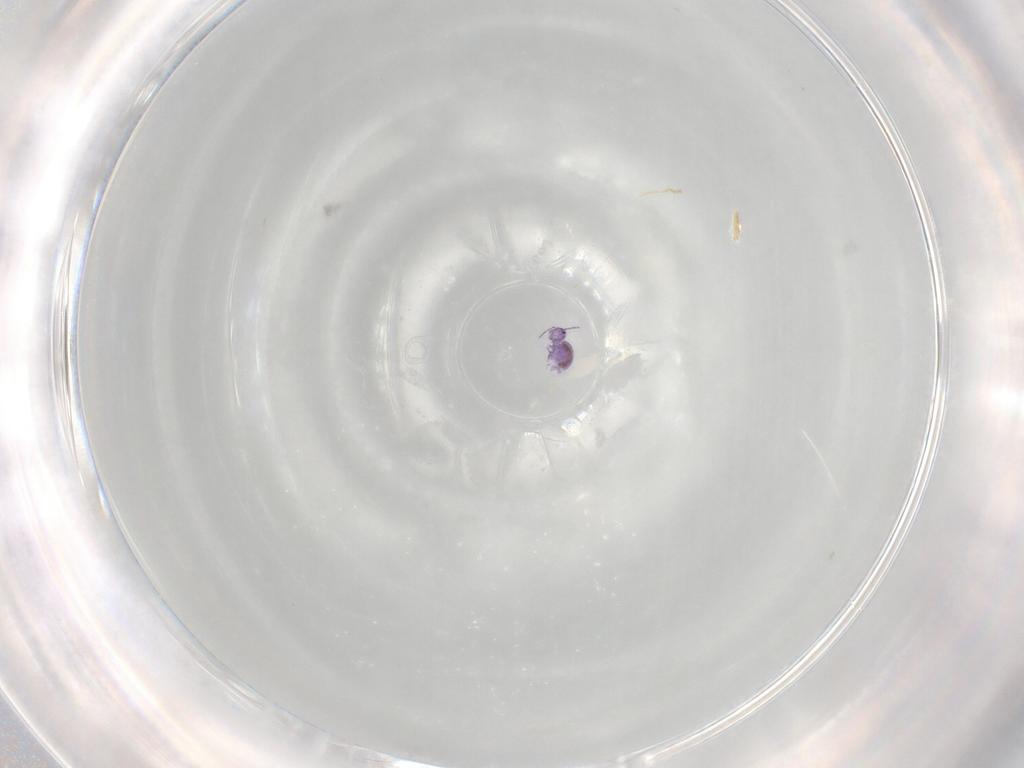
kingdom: Animalia
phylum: Arthropoda
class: Collembola
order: Symphypleona
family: Sminthurididae
